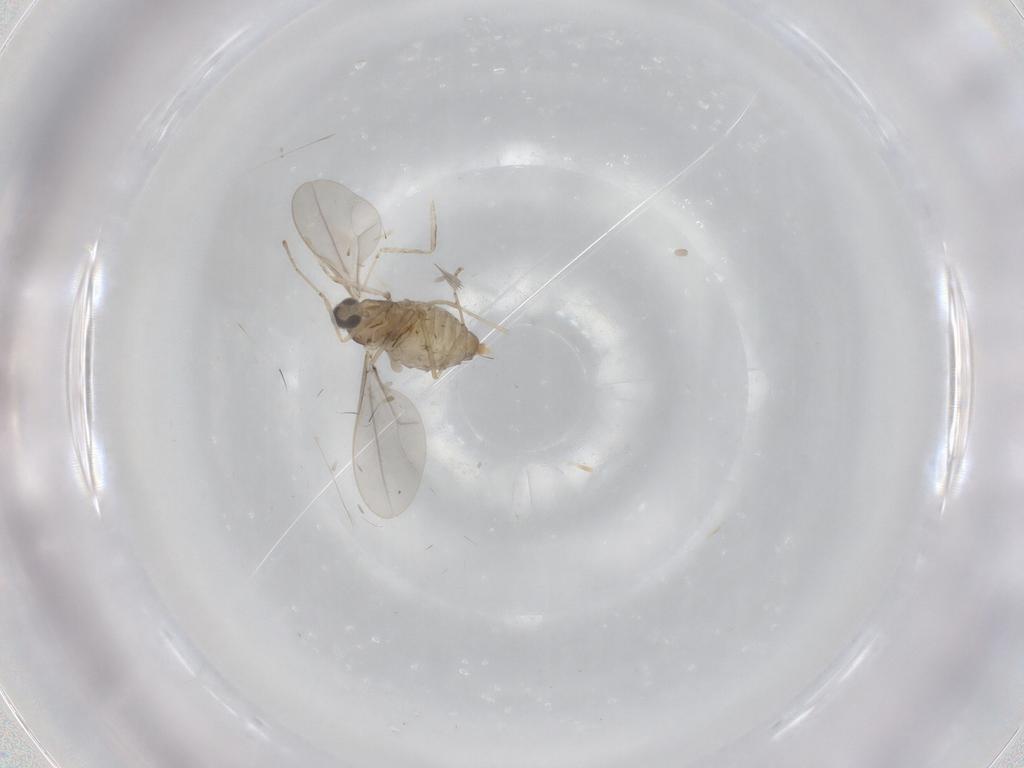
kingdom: Animalia
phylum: Arthropoda
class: Insecta
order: Diptera
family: Cecidomyiidae
